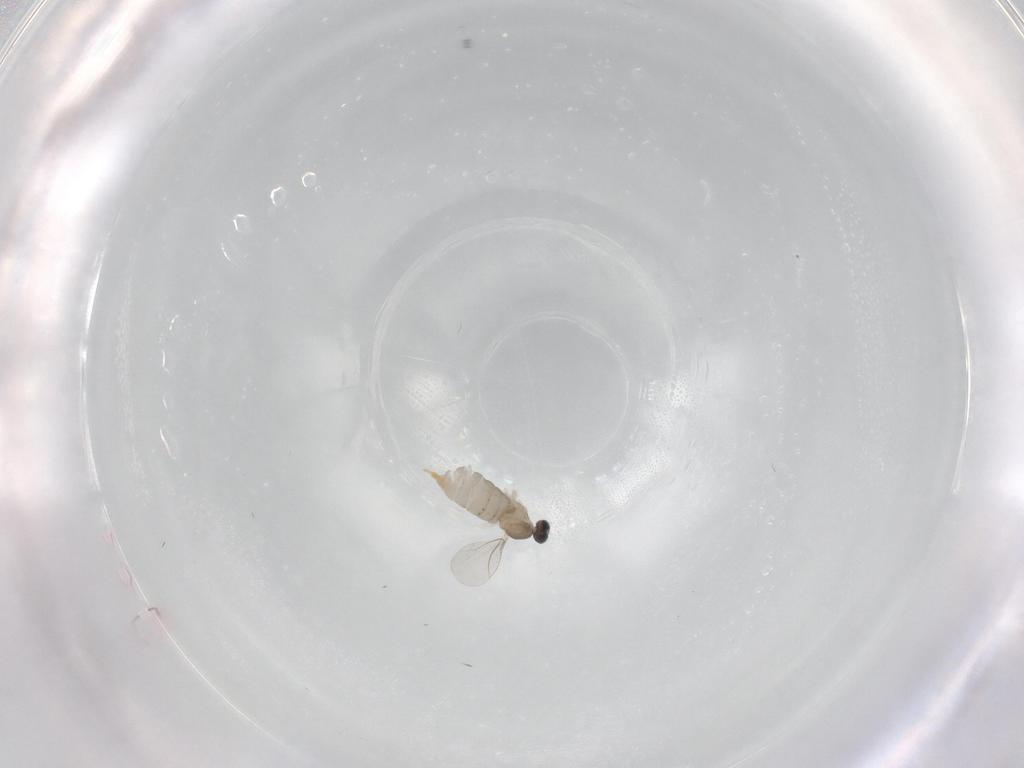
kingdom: Animalia
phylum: Arthropoda
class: Insecta
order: Diptera
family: Cecidomyiidae
